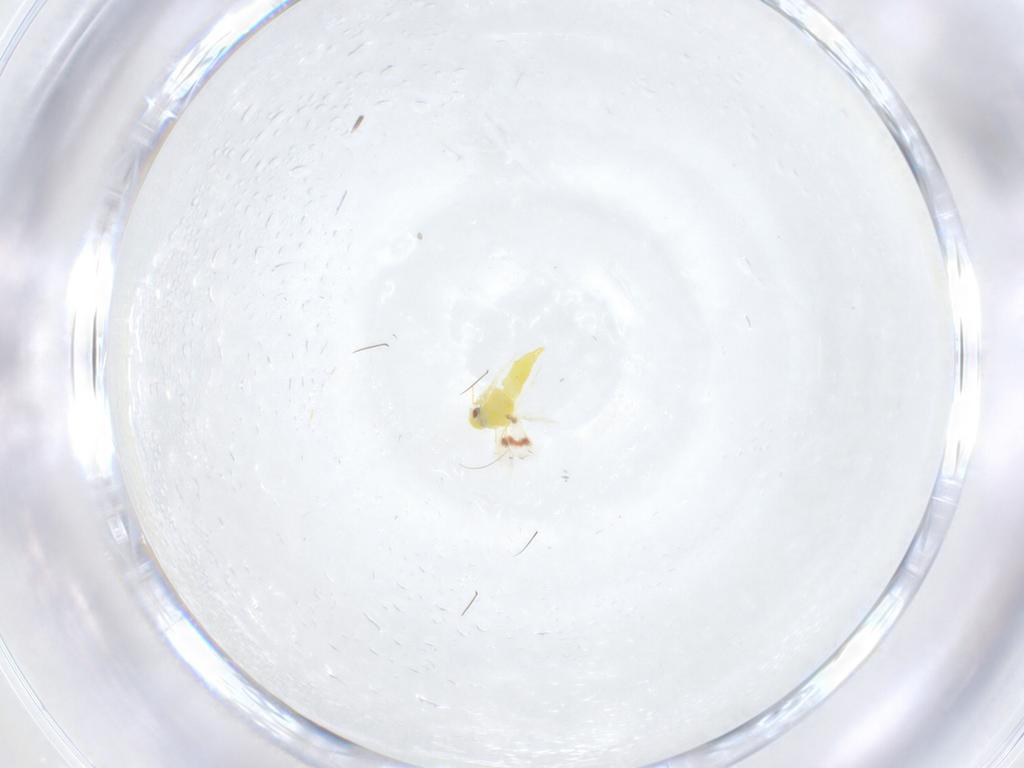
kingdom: Animalia
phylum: Arthropoda
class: Insecta
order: Hemiptera
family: Aleyrodidae
